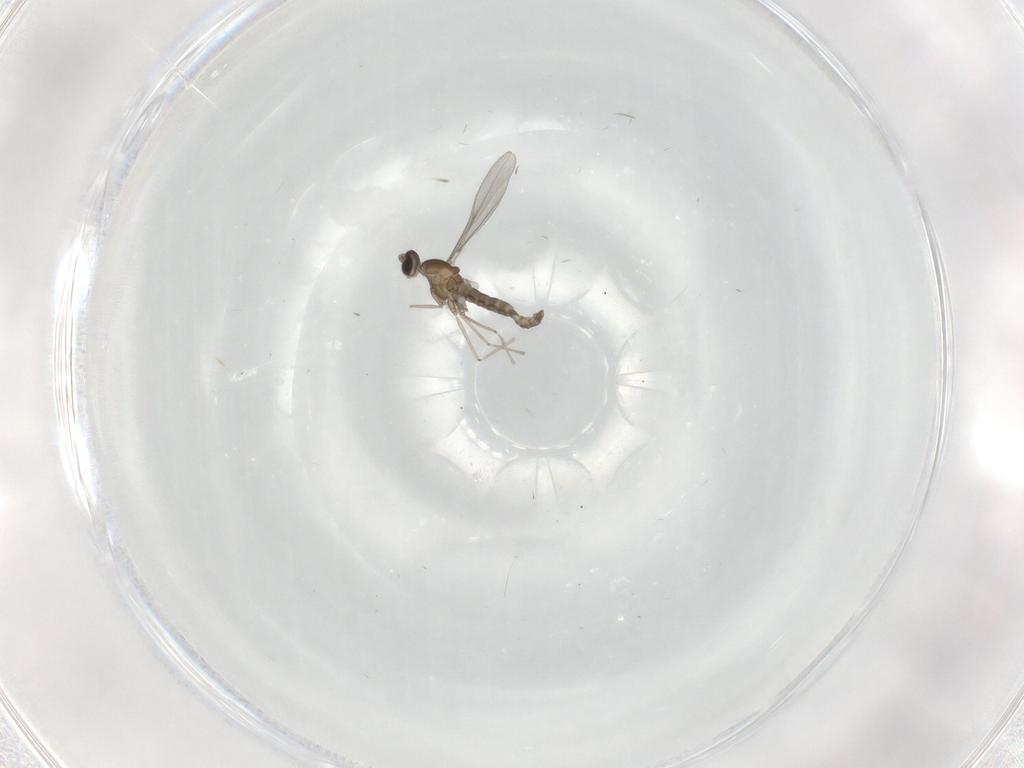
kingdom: Animalia
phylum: Arthropoda
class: Insecta
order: Diptera
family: Cecidomyiidae
